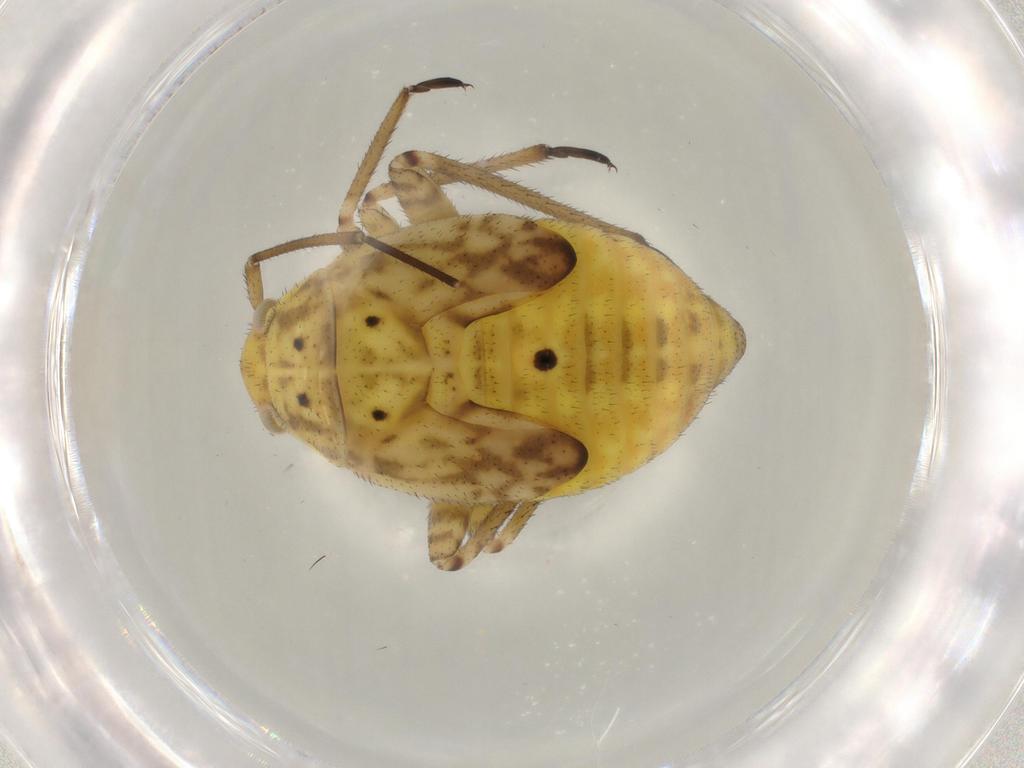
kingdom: Animalia
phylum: Arthropoda
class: Insecta
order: Hemiptera
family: Miridae
